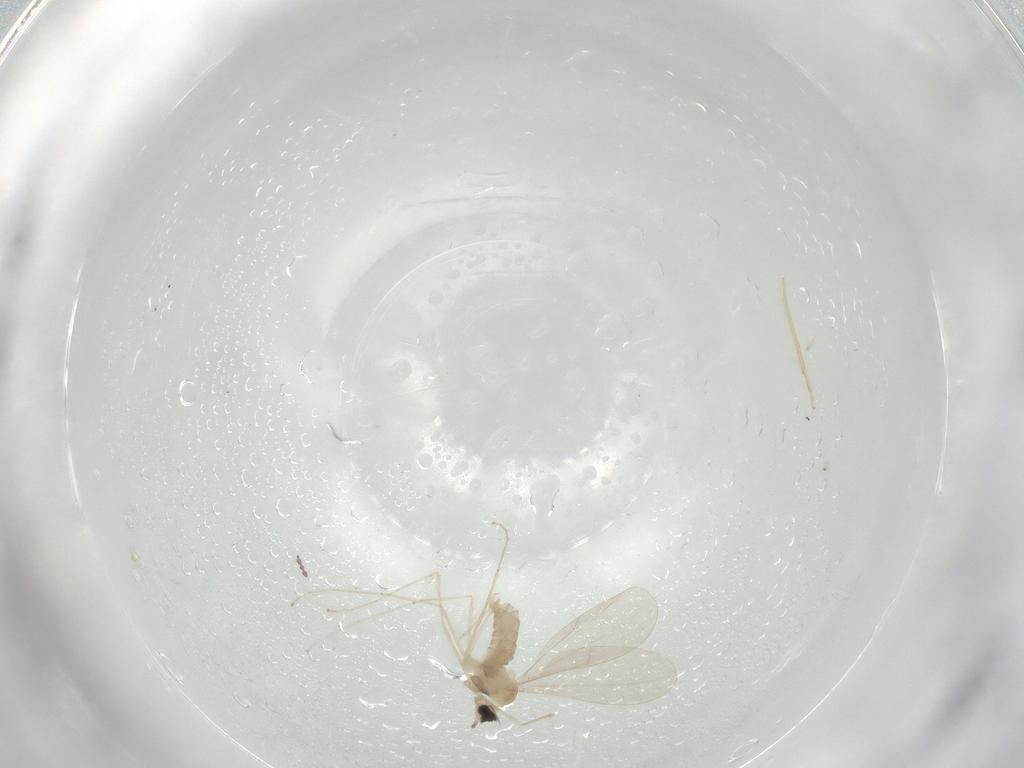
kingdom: Animalia
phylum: Arthropoda
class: Insecta
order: Diptera
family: Cecidomyiidae
